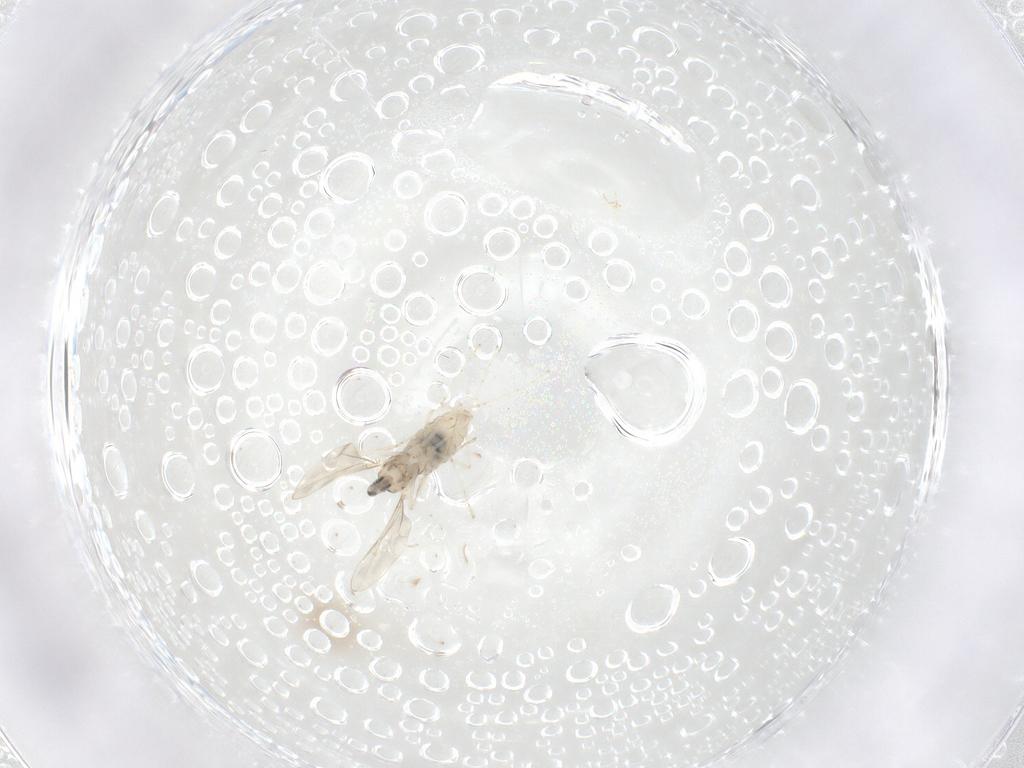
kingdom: Animalia
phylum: Arthropoda
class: Insecta
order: Diptera
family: Cecidomyiidae
